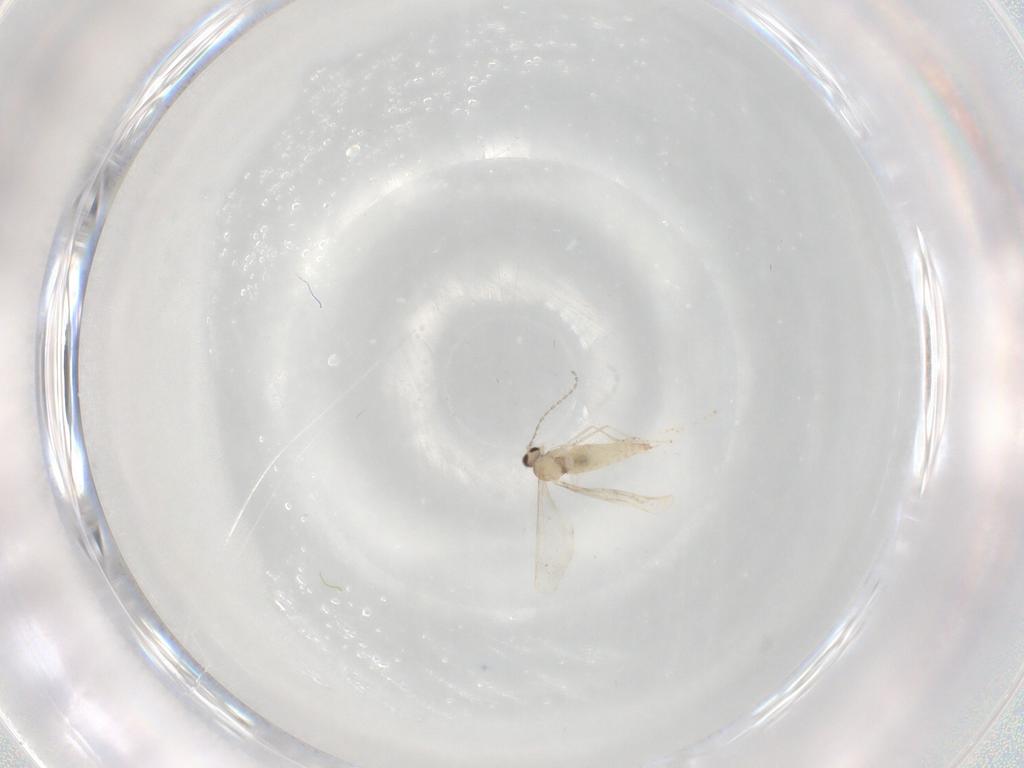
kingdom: Animalia
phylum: Arthropoda
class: Insecta
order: Diptera
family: Cecidomyiidae
